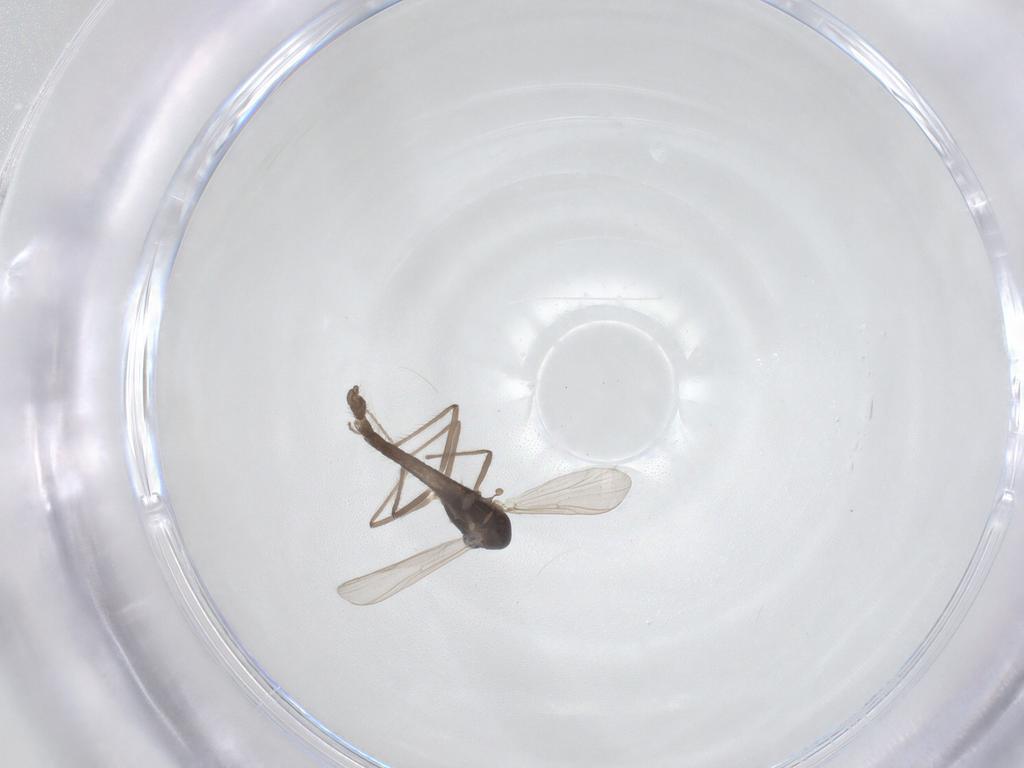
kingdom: Animalia
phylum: Arthropoda
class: Insecta
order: Diptera
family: Chironomidae
